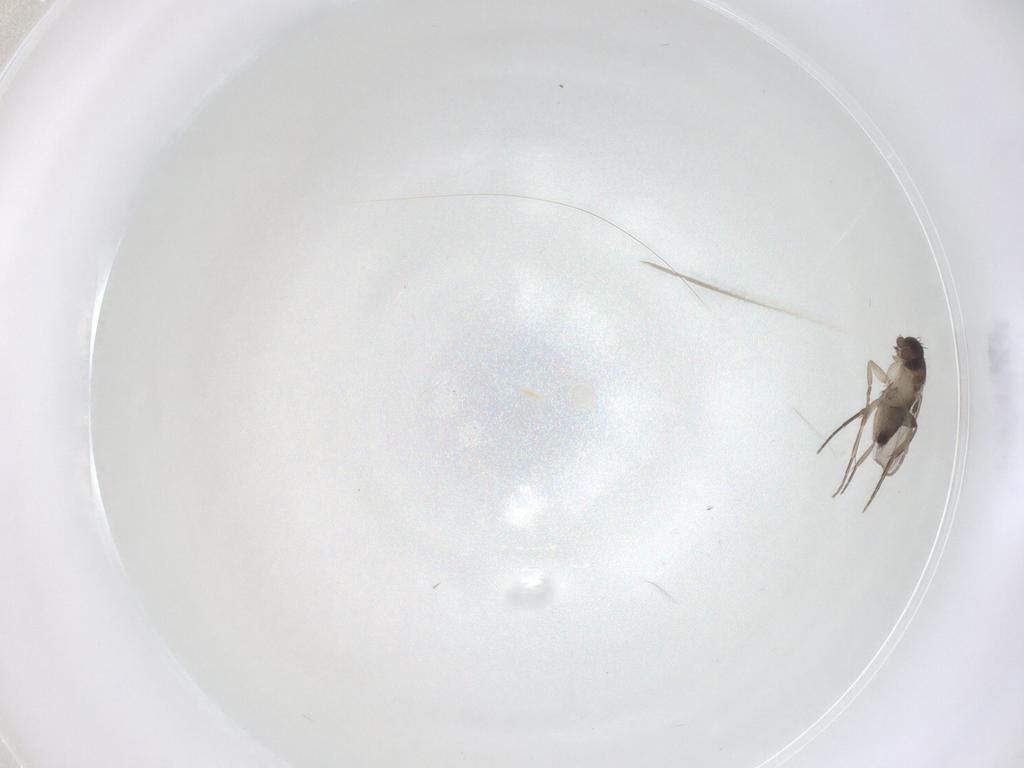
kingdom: Animalia
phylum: Arthropoda
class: Insecta
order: Diptera
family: Phoridae
